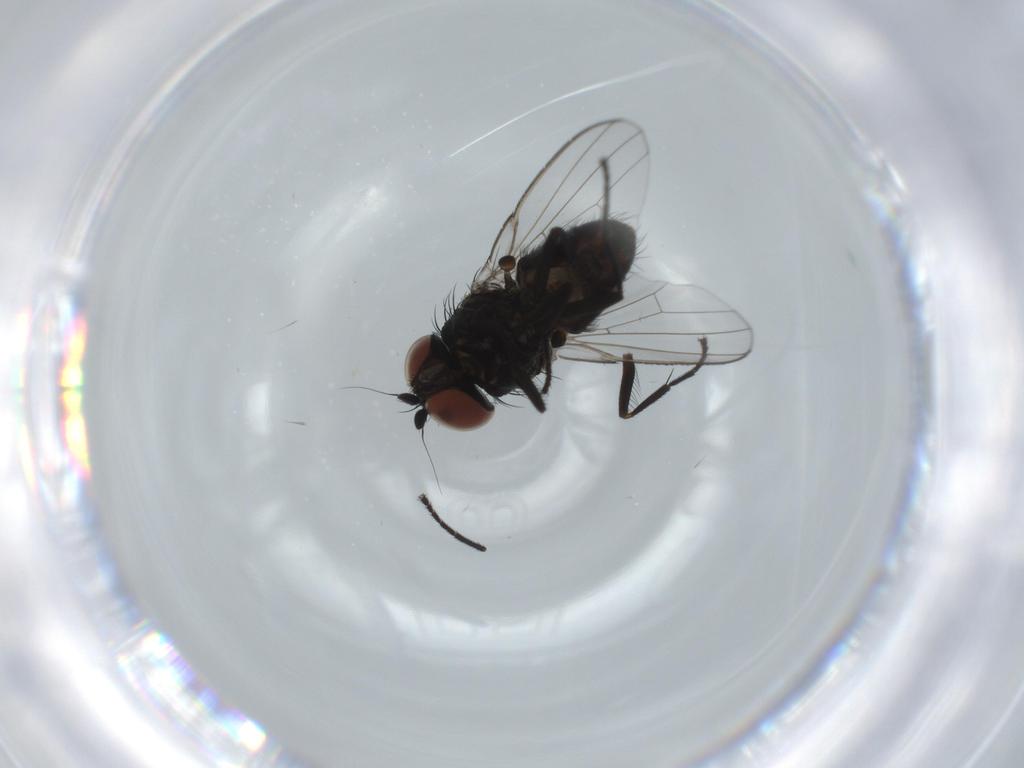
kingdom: Animalia
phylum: Arthropoda
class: Insecta
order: Diptera
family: Milichiidae
